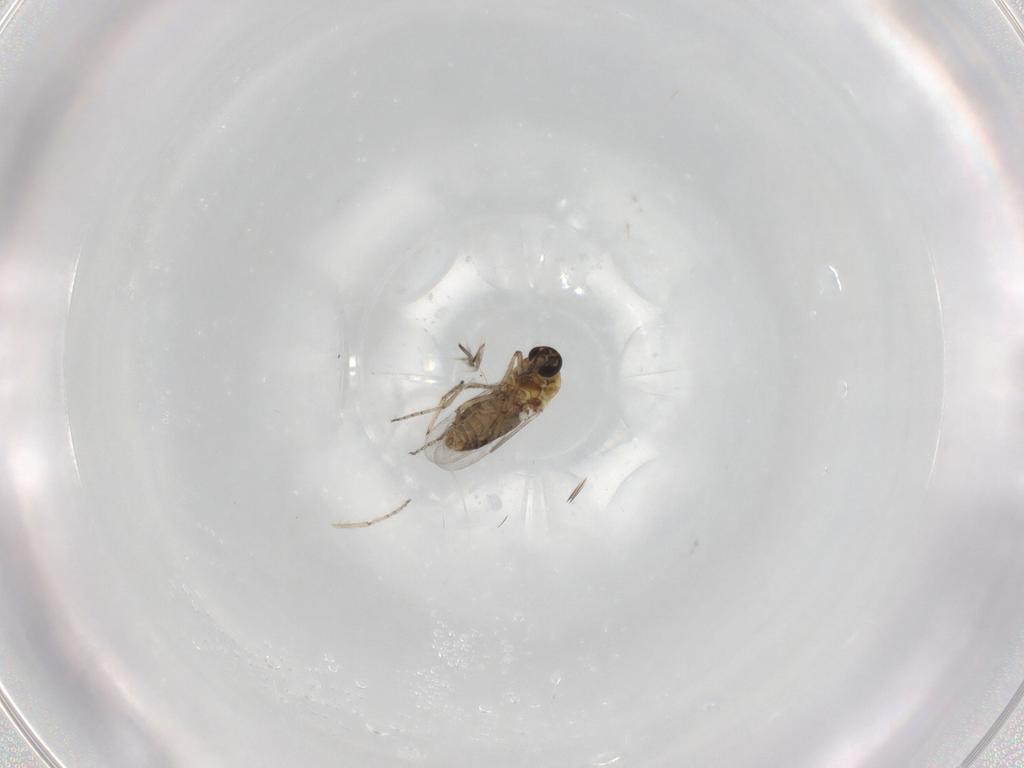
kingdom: Animalia
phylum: Arthropoda
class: Insecta
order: Diptera
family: Ceratopogonidae
